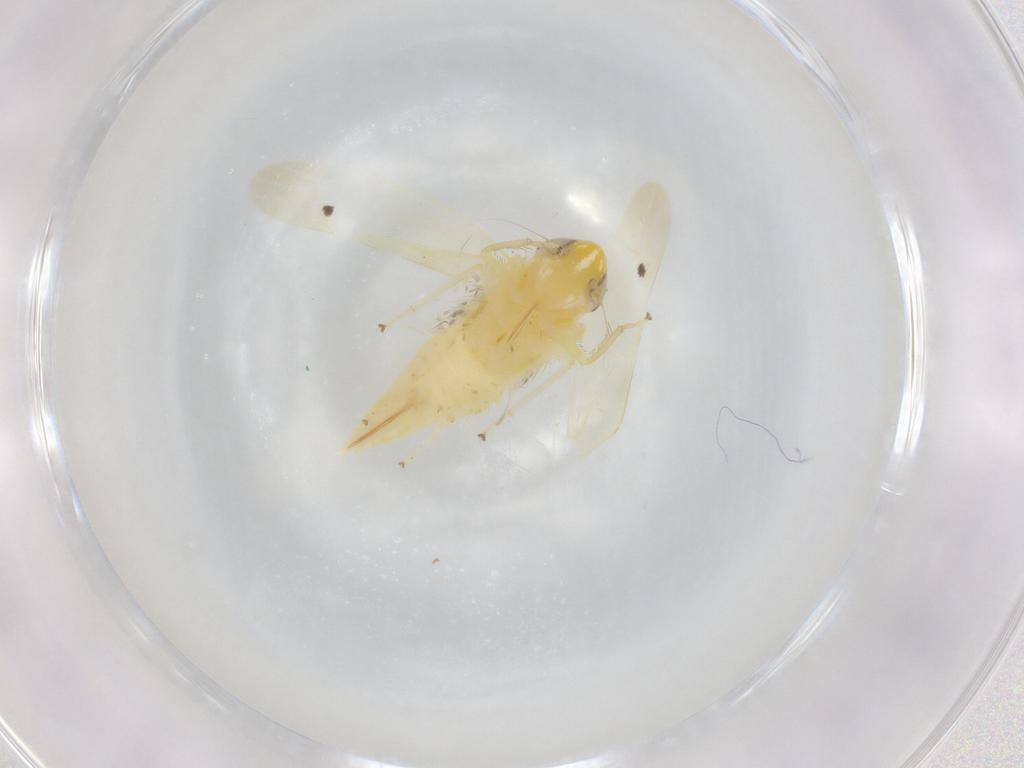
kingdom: Animalia
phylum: Arthropoda
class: Insecta
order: Hemiptera
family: Cicadellidae
